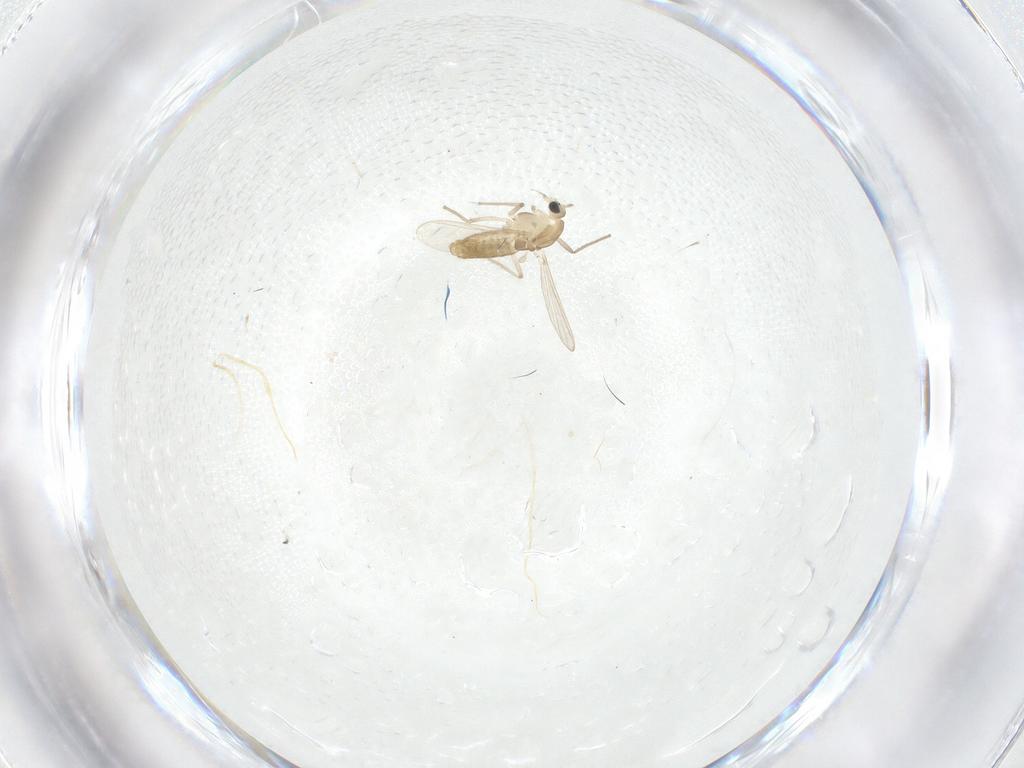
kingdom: Animalia
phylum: Arthropoda
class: Insecta
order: Diptera
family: Chironomidae
